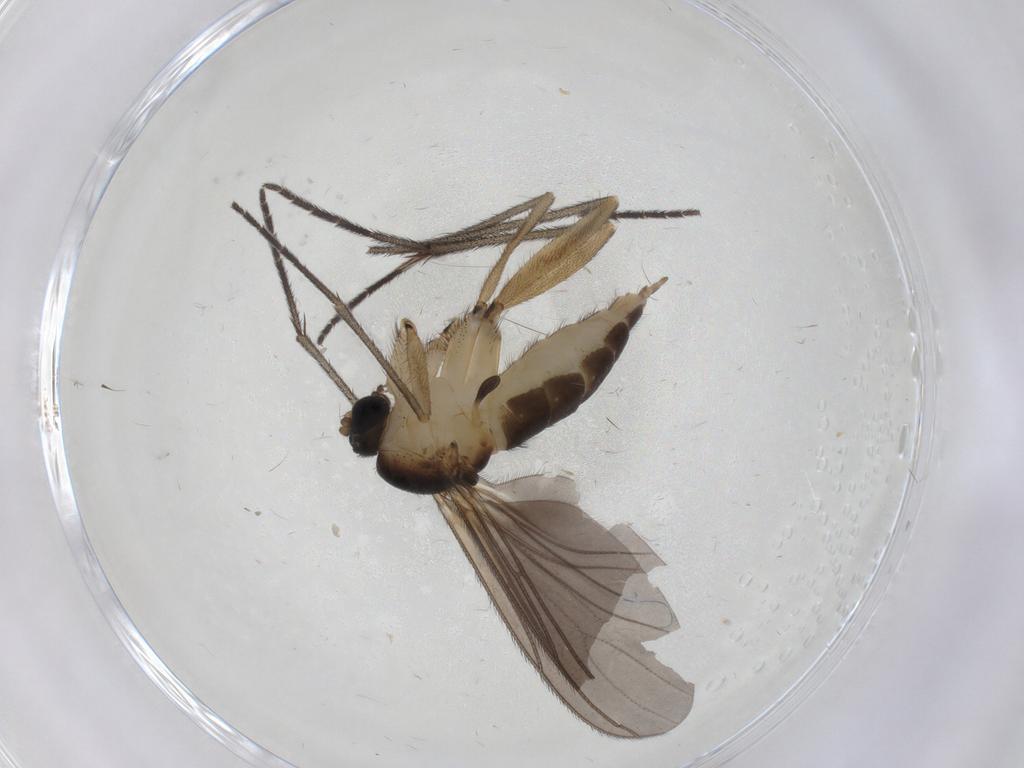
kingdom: Animalia
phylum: Arthropoda
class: Insecta
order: Diptera
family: Sciaridae
